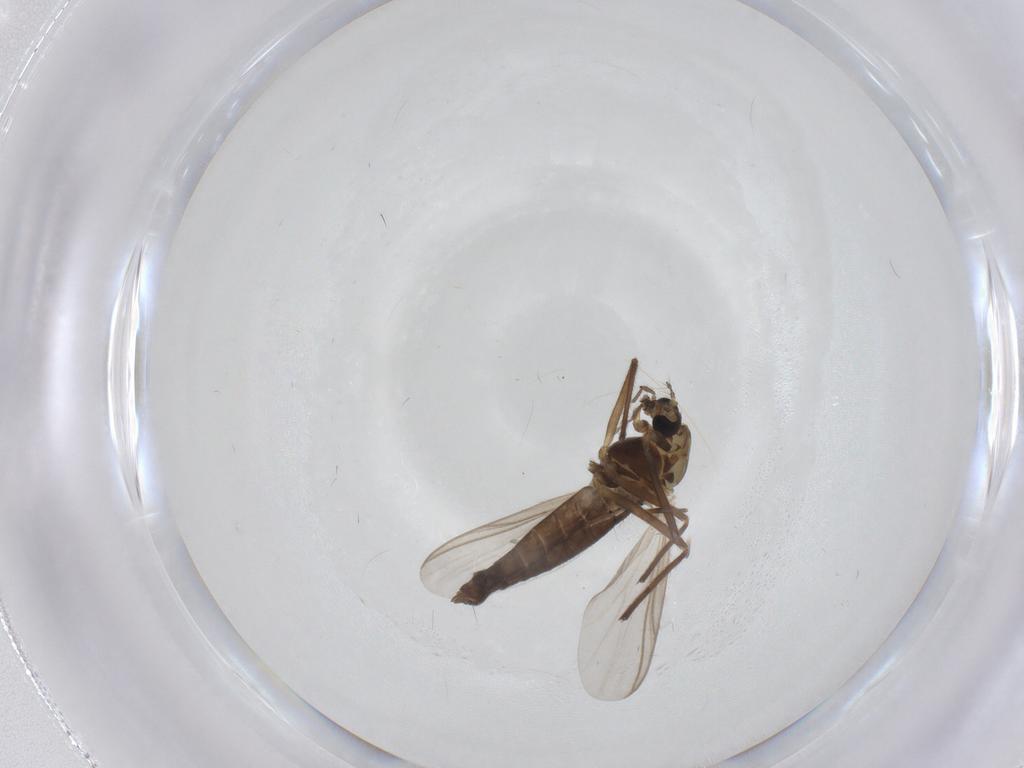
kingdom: Animalia
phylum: Arthropoda
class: Insecta
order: Diptera
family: Chironomidae
